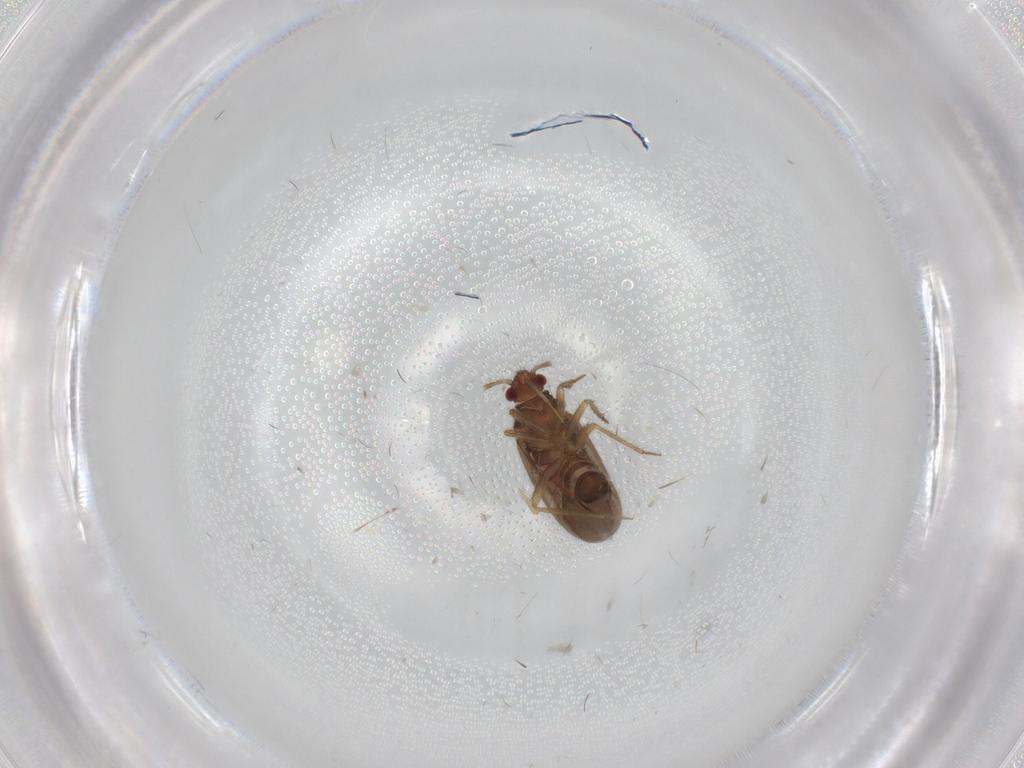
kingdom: Animalia
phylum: Arthropoda
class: Insecta
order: Hemiptera
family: Ceratocombidae
